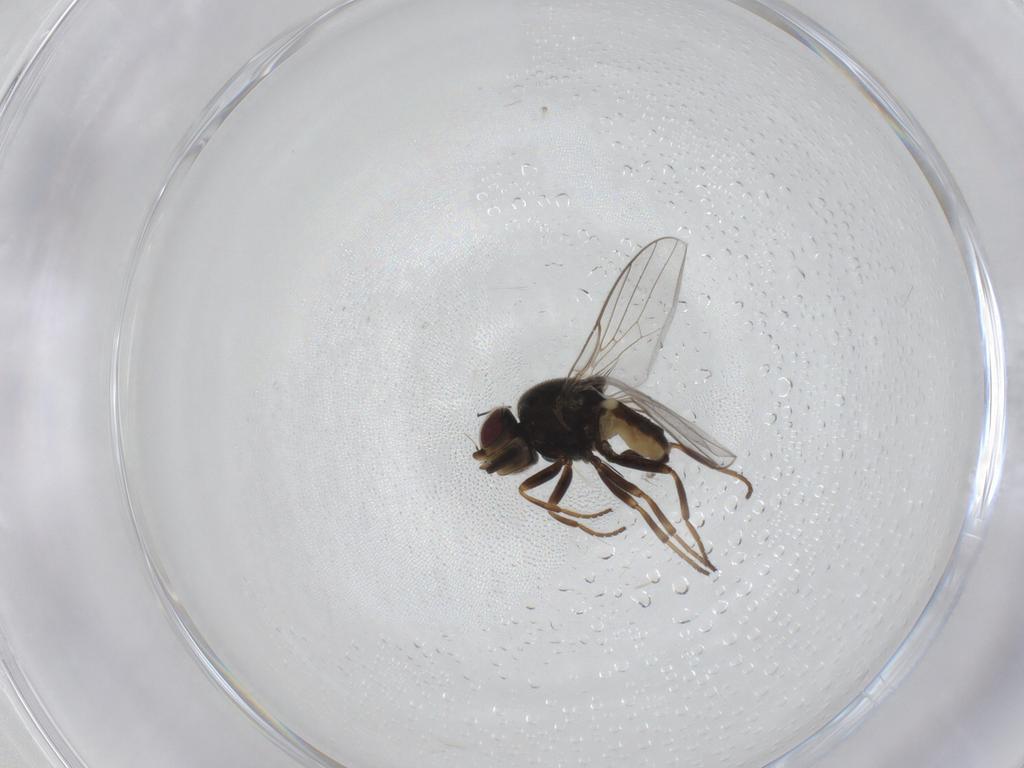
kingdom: Animalia
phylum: Arthropoda
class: Insecta
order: Diptera
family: Chloropidae
